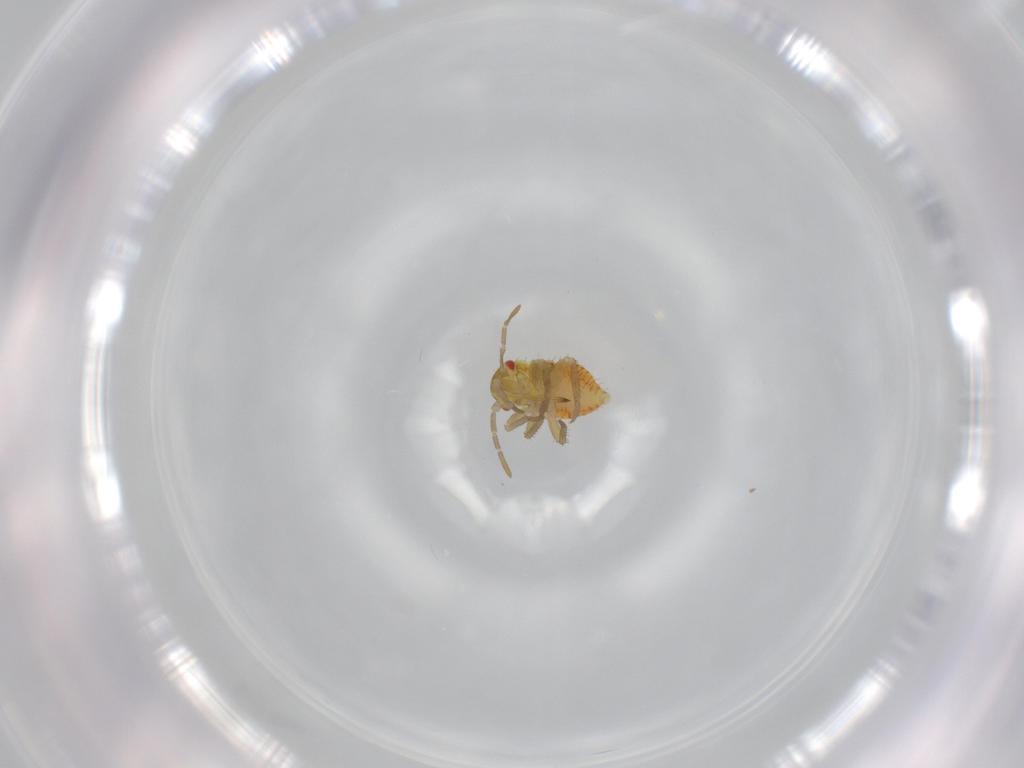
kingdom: Animalia
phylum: Arthropoda
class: Insecta
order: Hemiptera
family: Miridae
